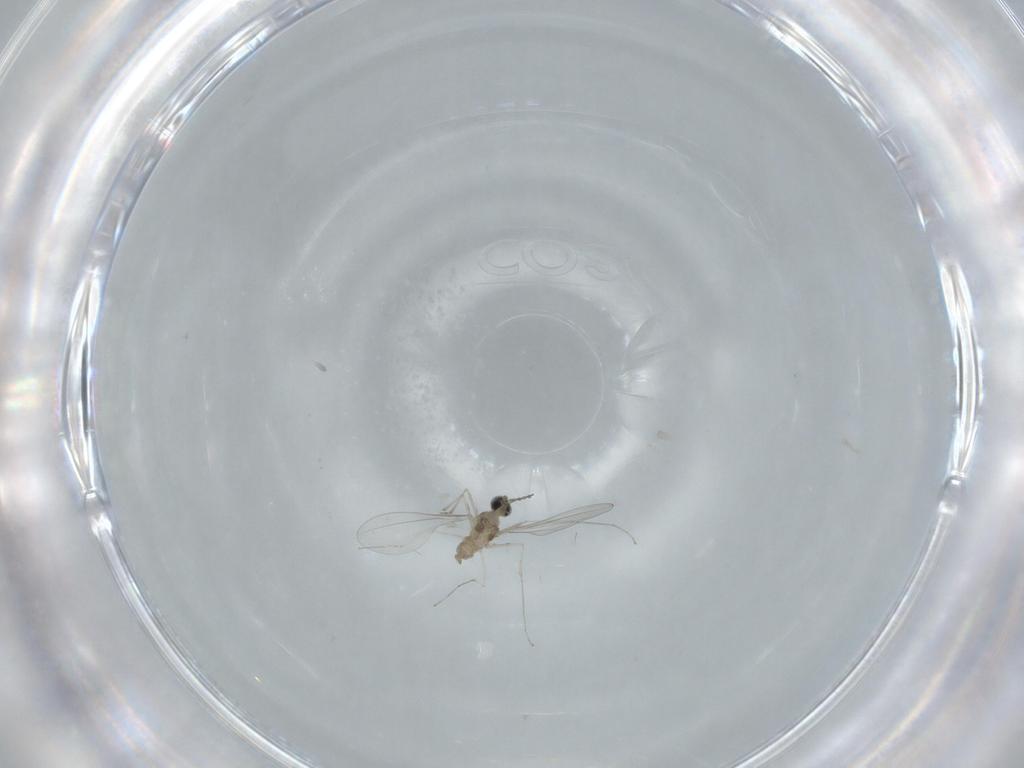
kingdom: Animalia
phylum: Arthropoda
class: Insecta
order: Diptera
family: Cecidomyiidae
